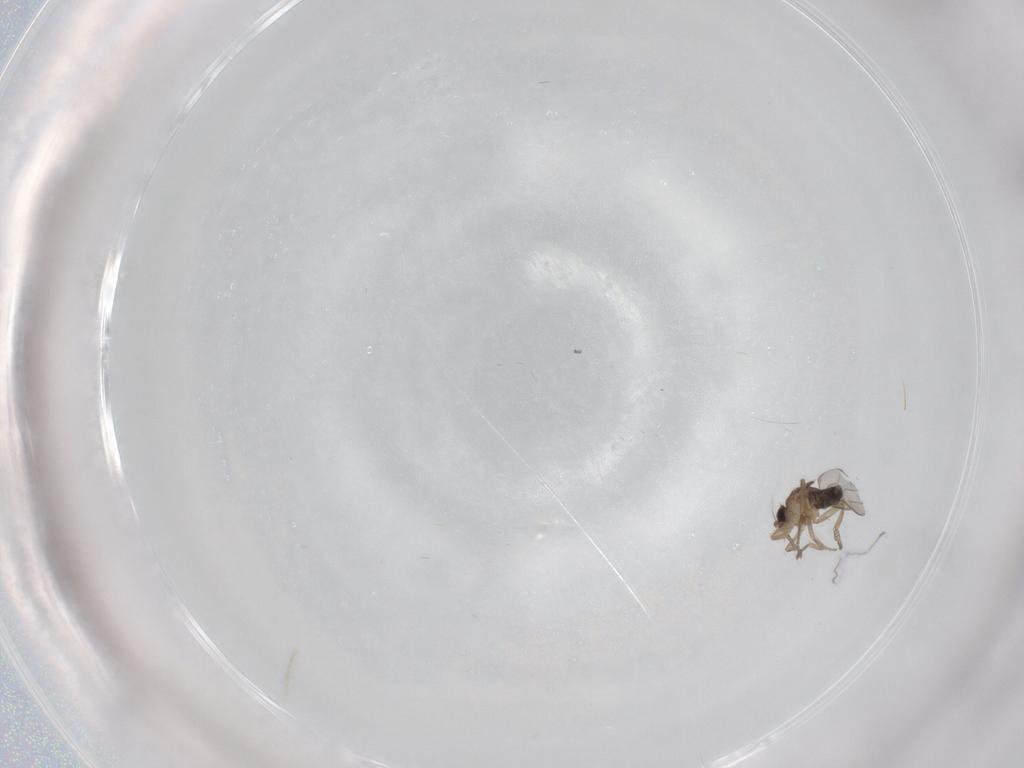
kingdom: Animalia
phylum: Arthropoda
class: Insecta
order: Diptera
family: Phoridae
